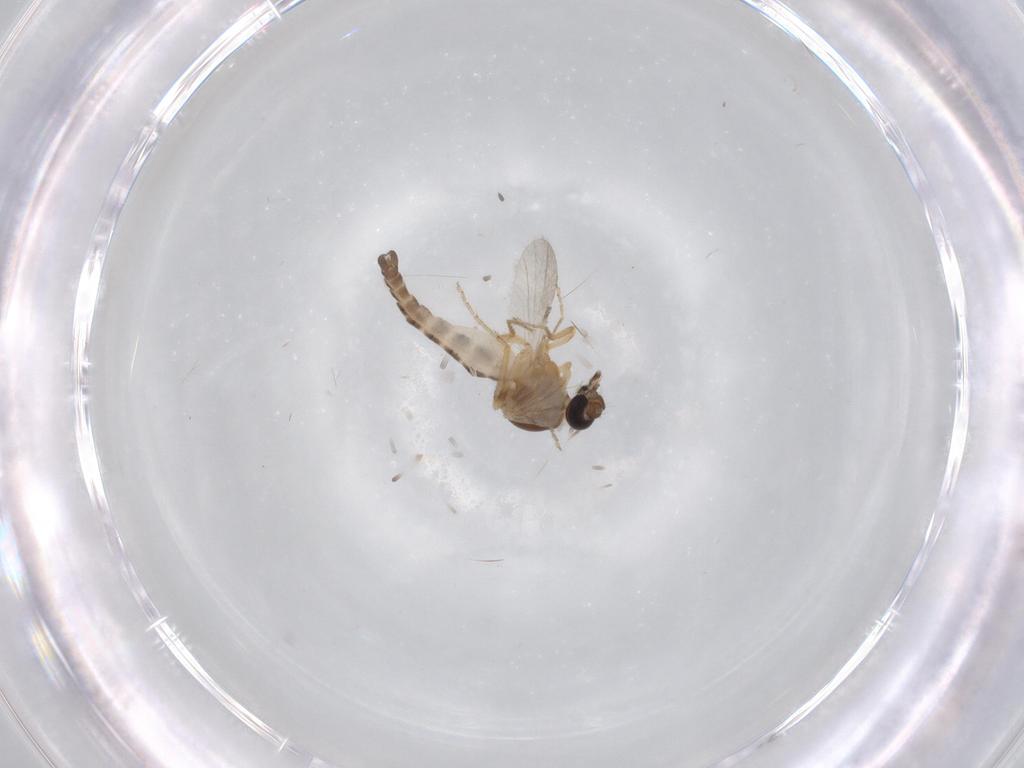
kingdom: Animalia
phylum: Arthropoda
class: Insecta
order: Diptera
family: Ceratopogonidae
